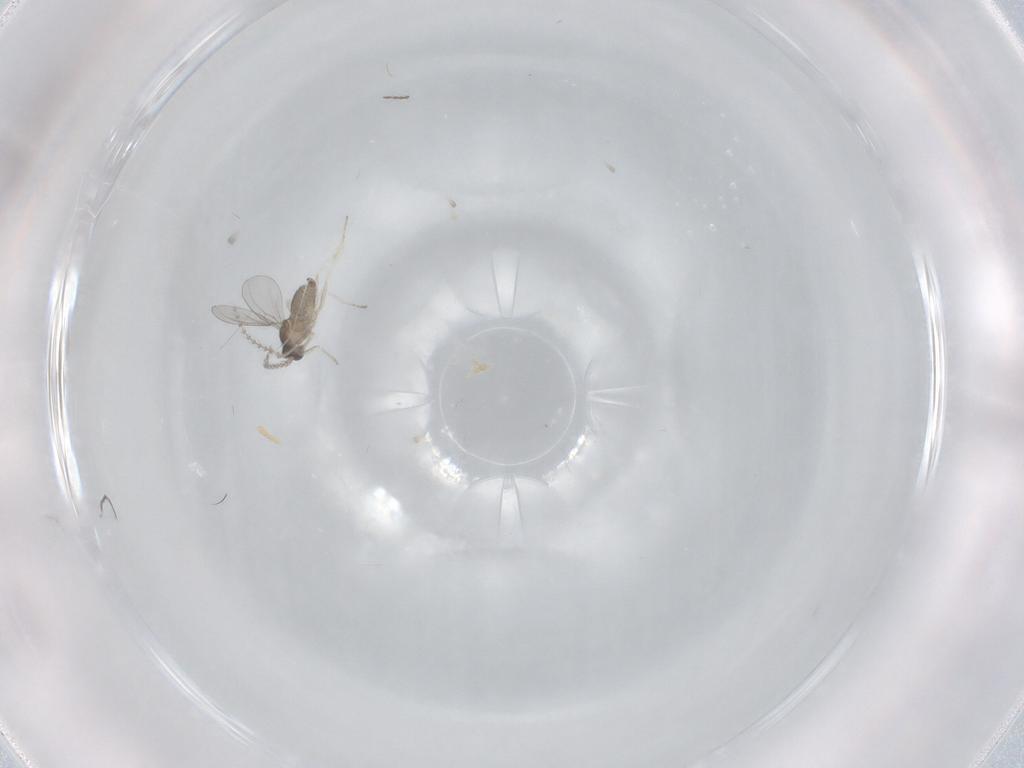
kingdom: Animalia
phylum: Arthropoda
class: Insecta
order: Diptera
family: Cecidomyiidae
